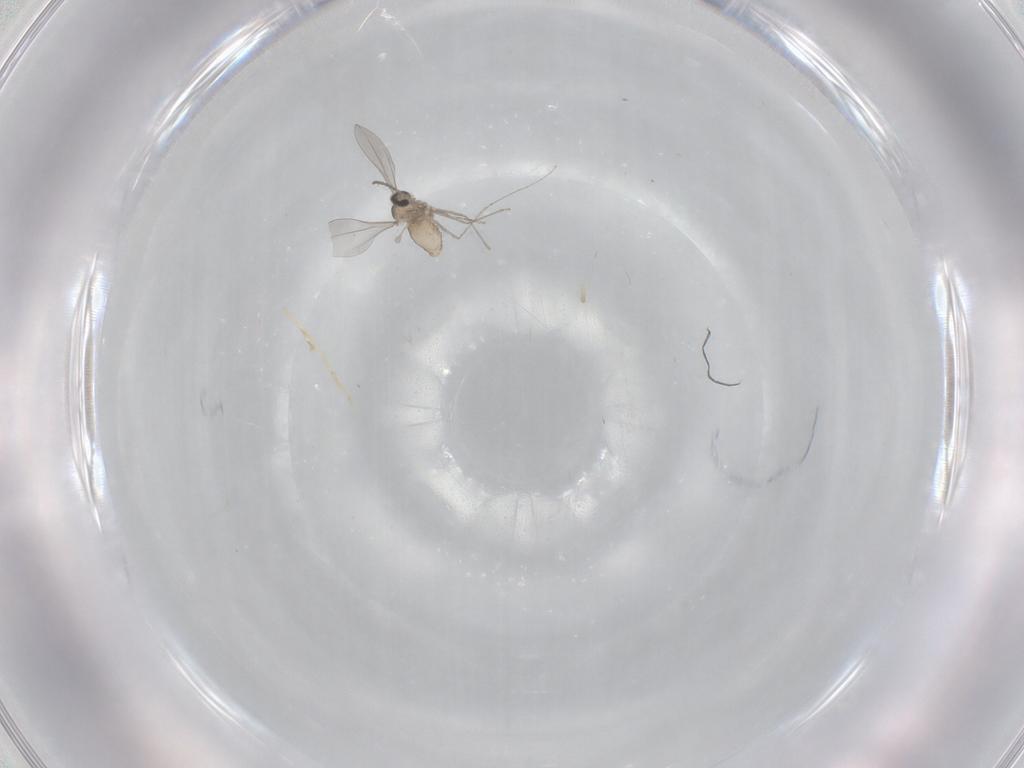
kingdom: Animalia
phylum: Arthropoda
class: Insecta
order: Diptera
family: Cecidomyiidae
